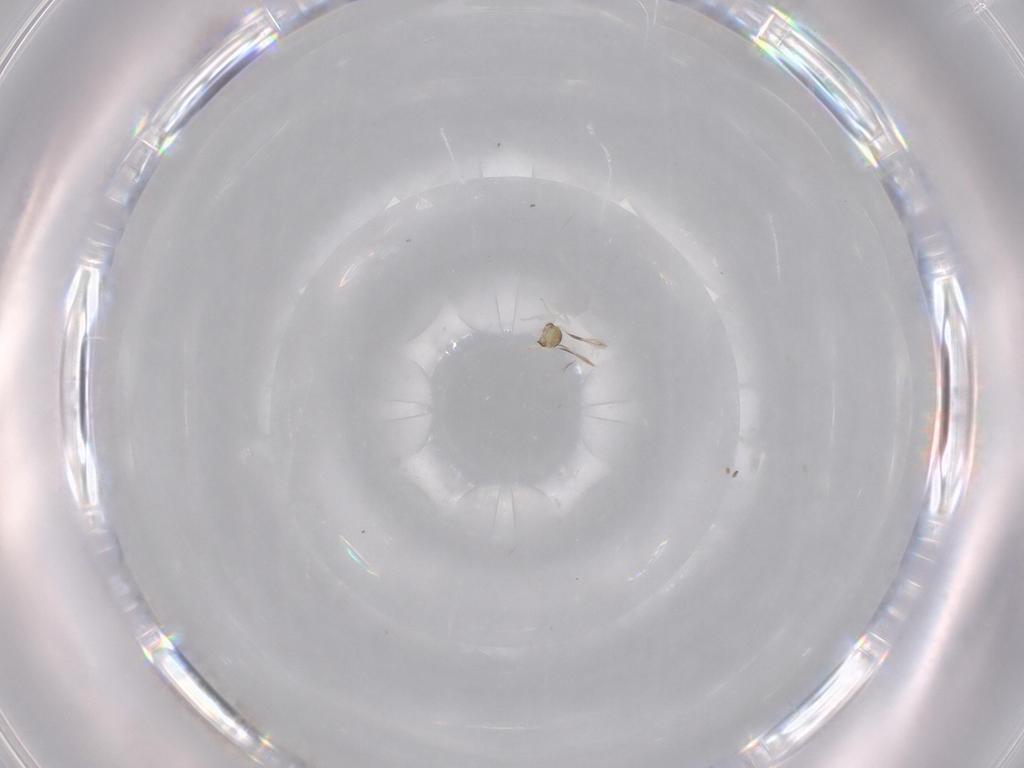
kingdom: Animalia
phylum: Arthropoda
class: Insecta
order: Hymenoptera
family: Aphelinidae
